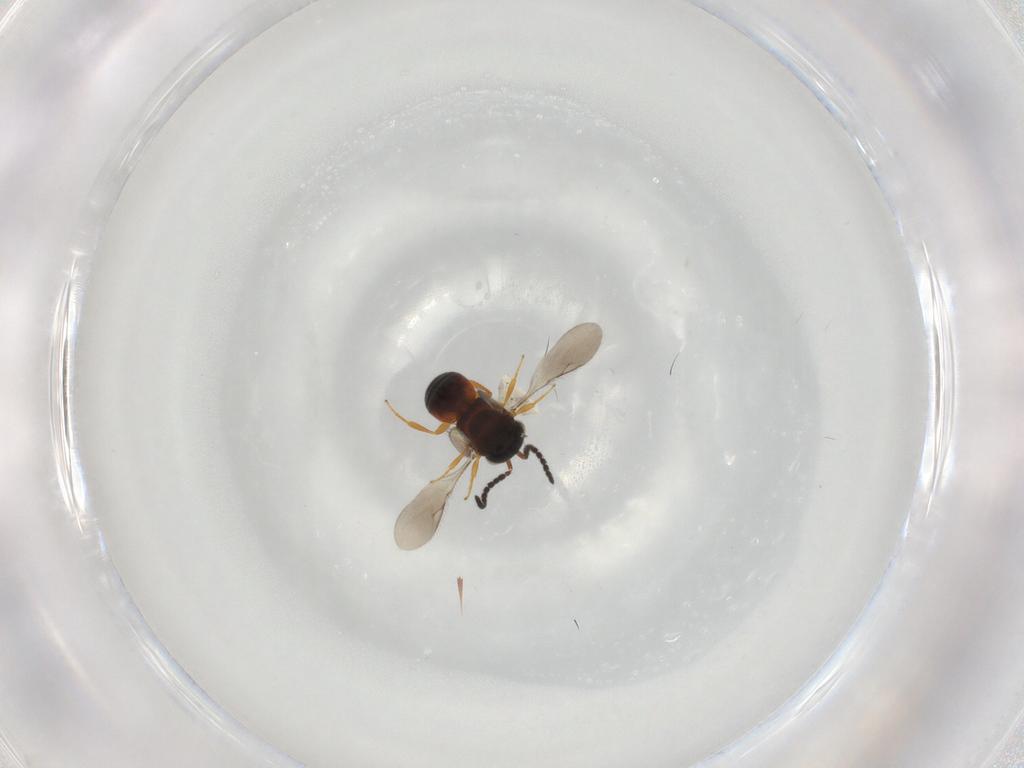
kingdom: Animalia
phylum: Arthropoda
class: Insecta
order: Hymenoptera
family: Scelionidae
